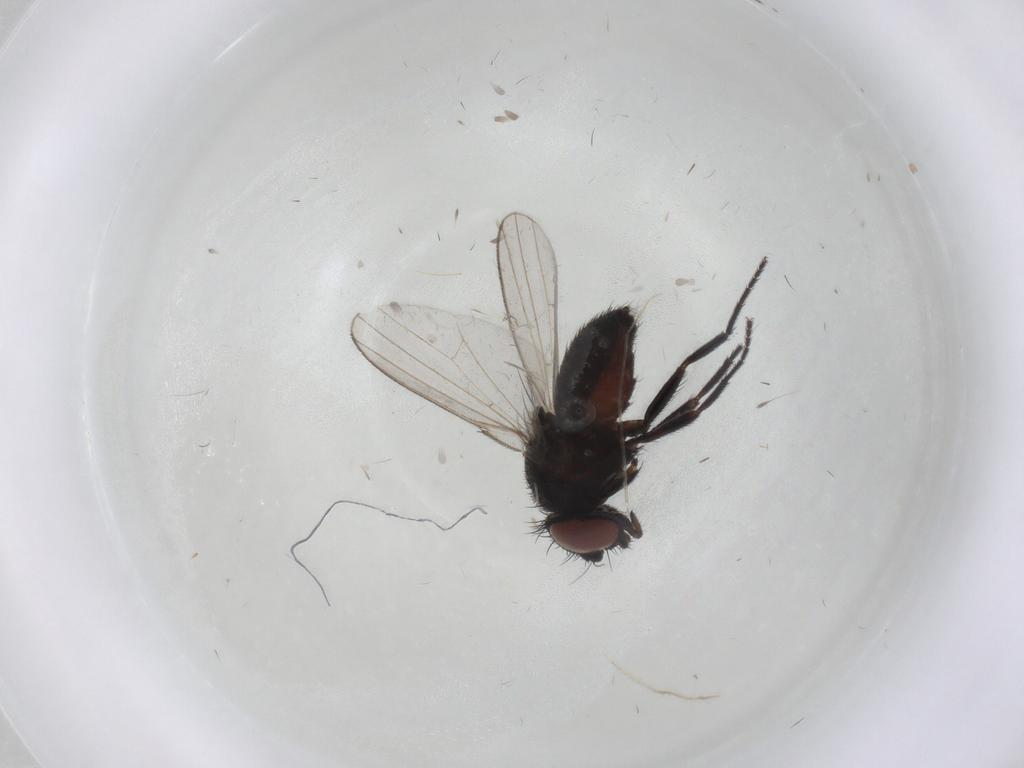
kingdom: Animalia
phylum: Arthropoda
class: Insecta
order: Diptera
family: Milichiidae
